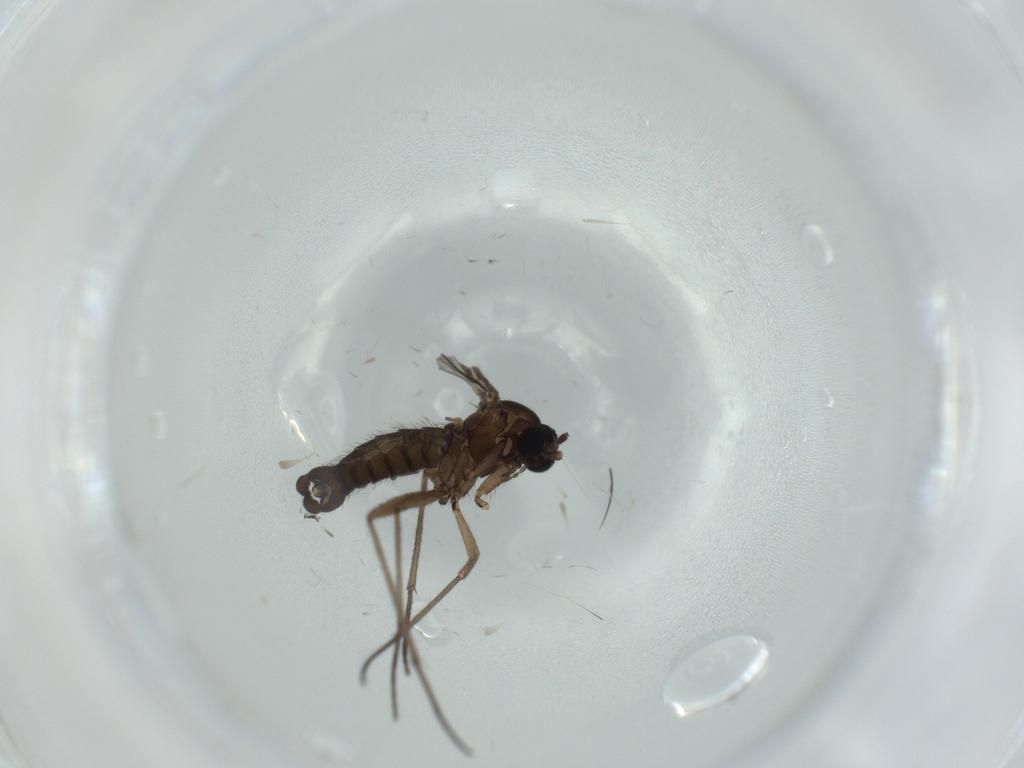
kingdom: Animalia
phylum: Arthropoda
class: Insecta
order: Diptera
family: Sciaridae
